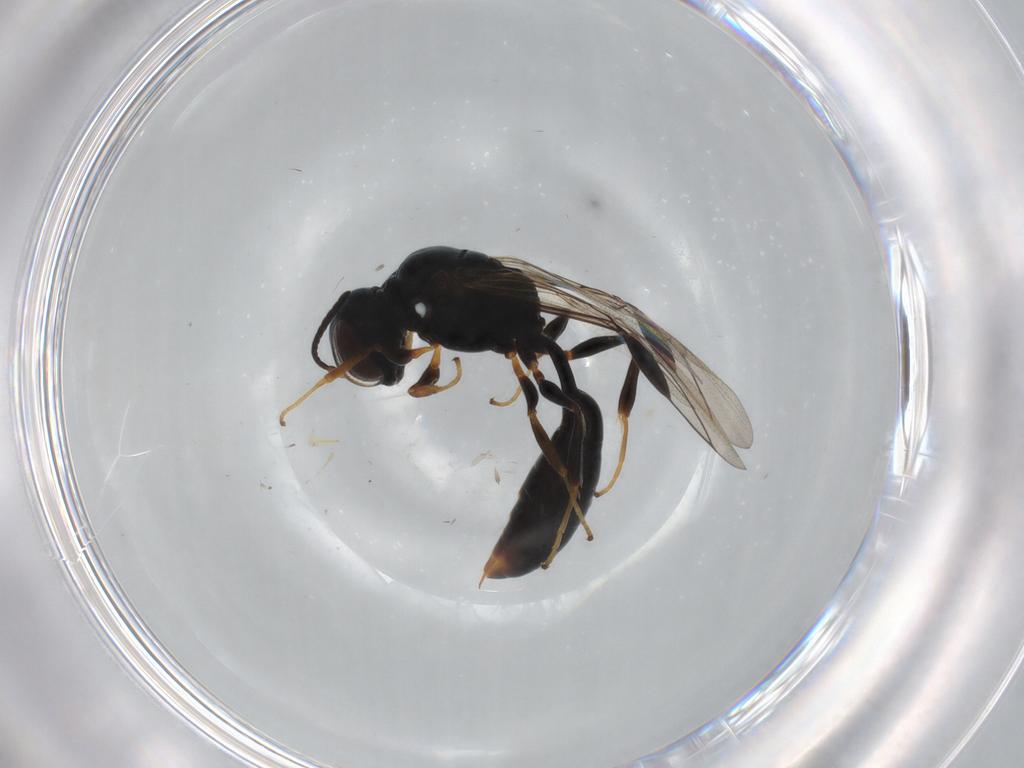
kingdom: Animalia
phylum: Arthropoda
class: Insecta
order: Hymenoptera
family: Pemphredonidae
